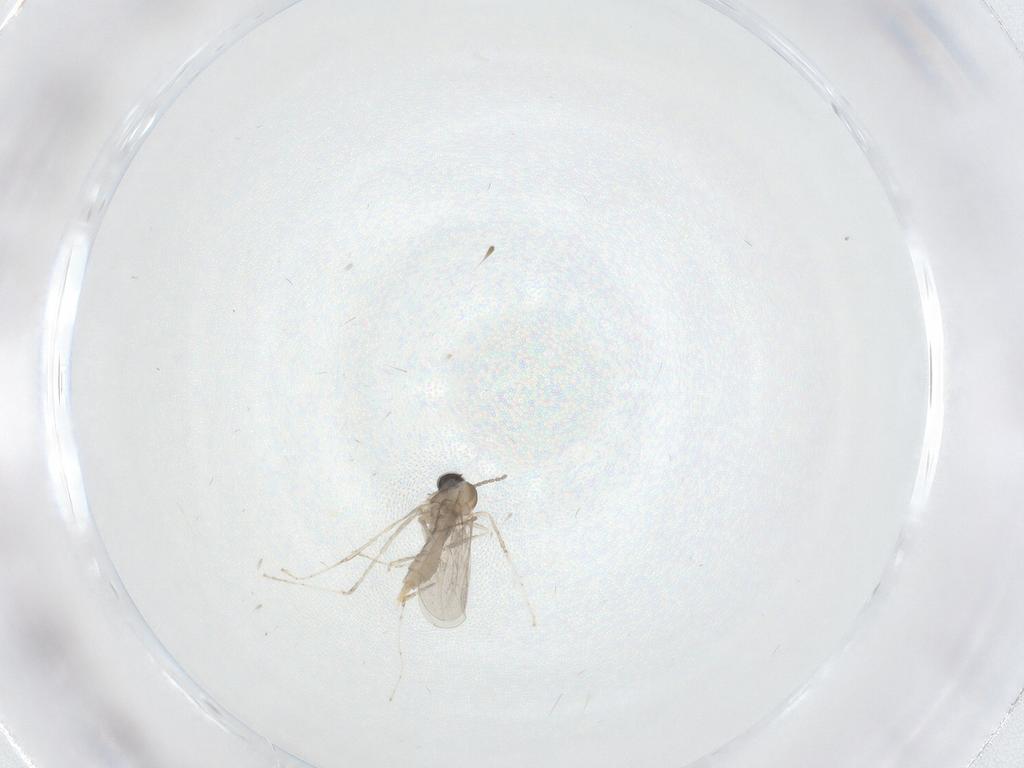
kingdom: Animalia
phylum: Arthropoda
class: Insecta
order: Diptera
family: Cecidomyiidae
